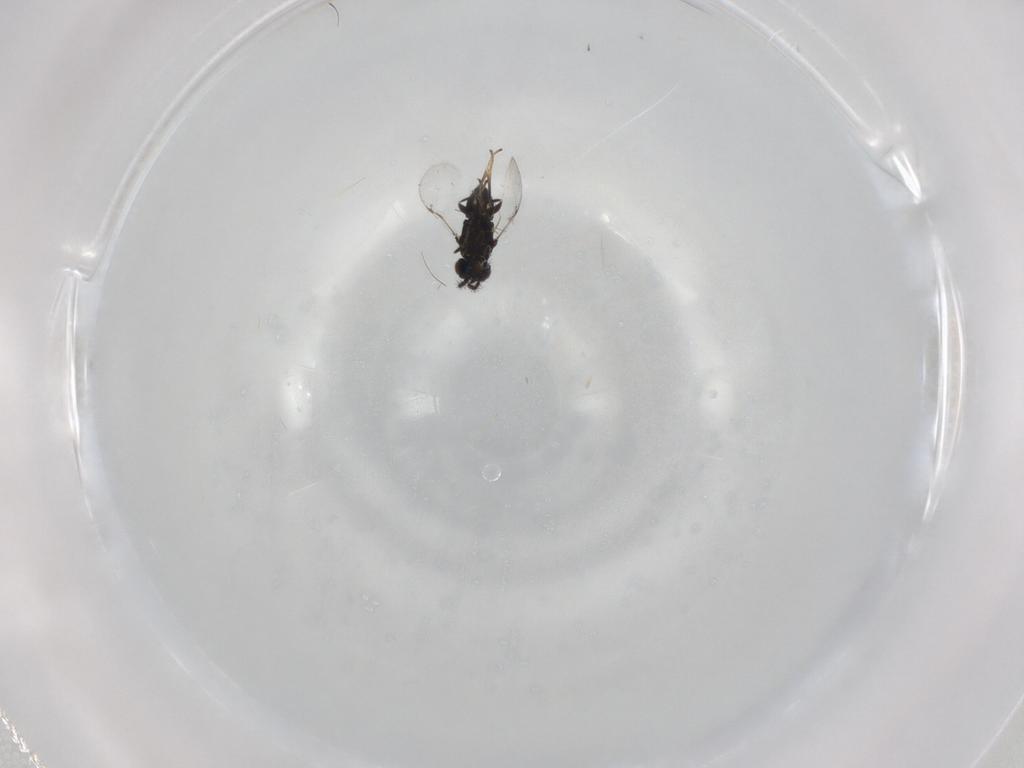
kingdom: Animalia
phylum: Arthropoda
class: Insecta
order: Hymenoptera
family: Encyrtidae
